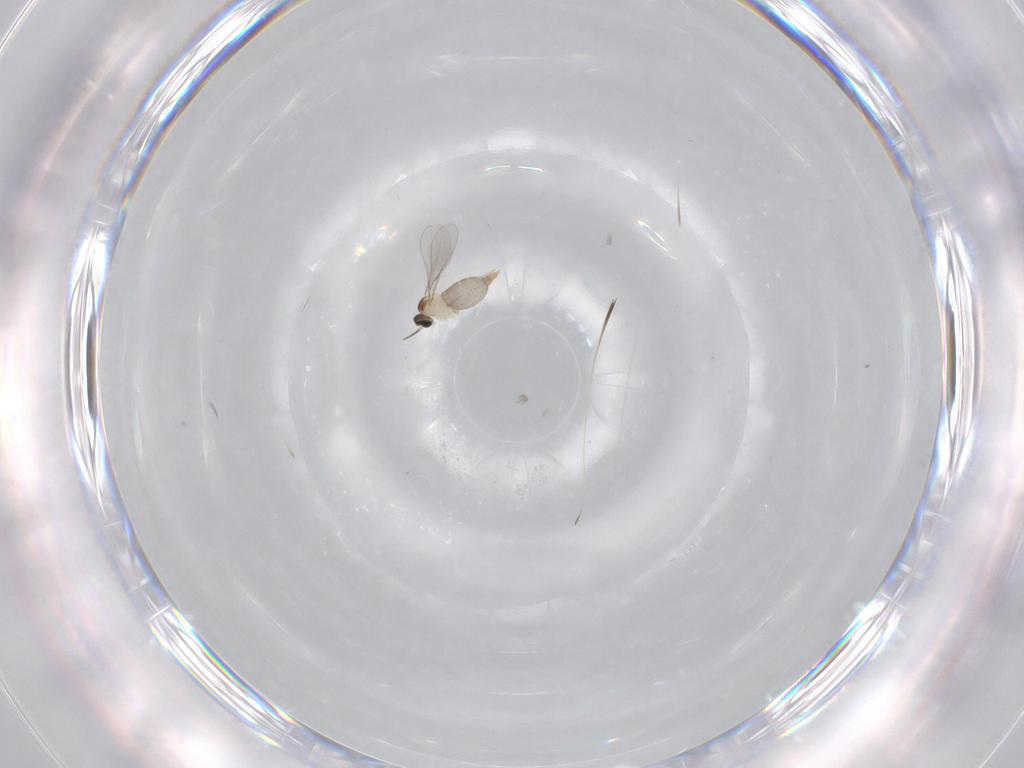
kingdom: Animalia
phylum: Arthropoda
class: Insecta
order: Diptera
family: Cecidomyiidae
